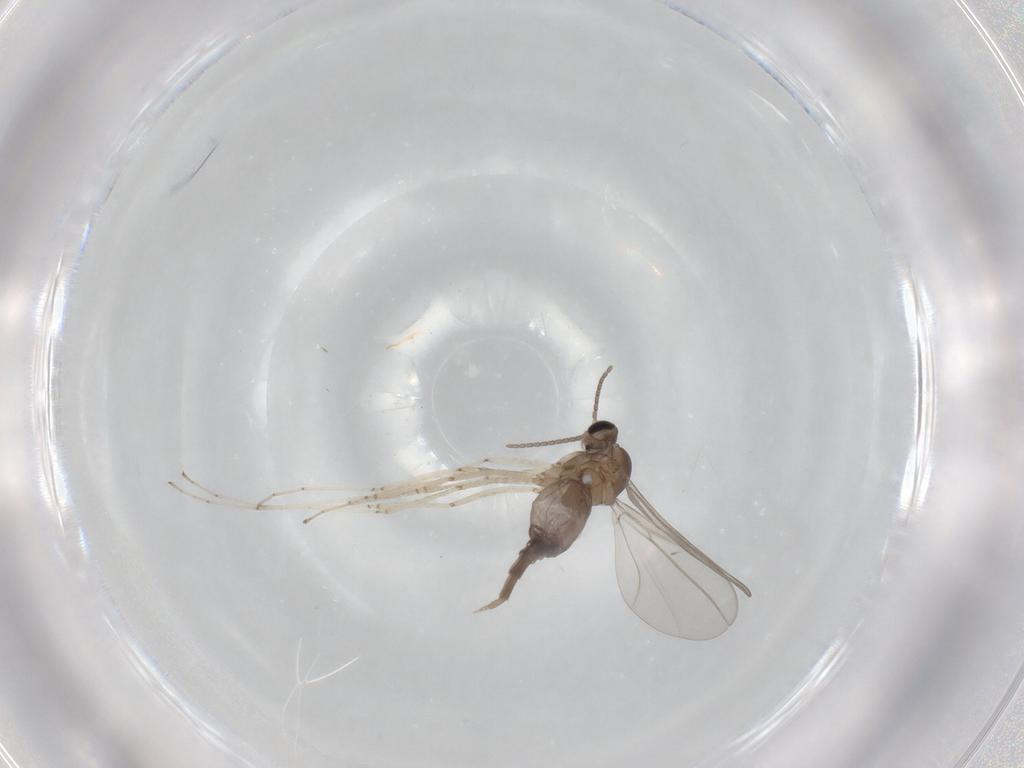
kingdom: Animalia
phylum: Arthropoda
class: Insecta
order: Diptera
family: Cecidomyiidae
